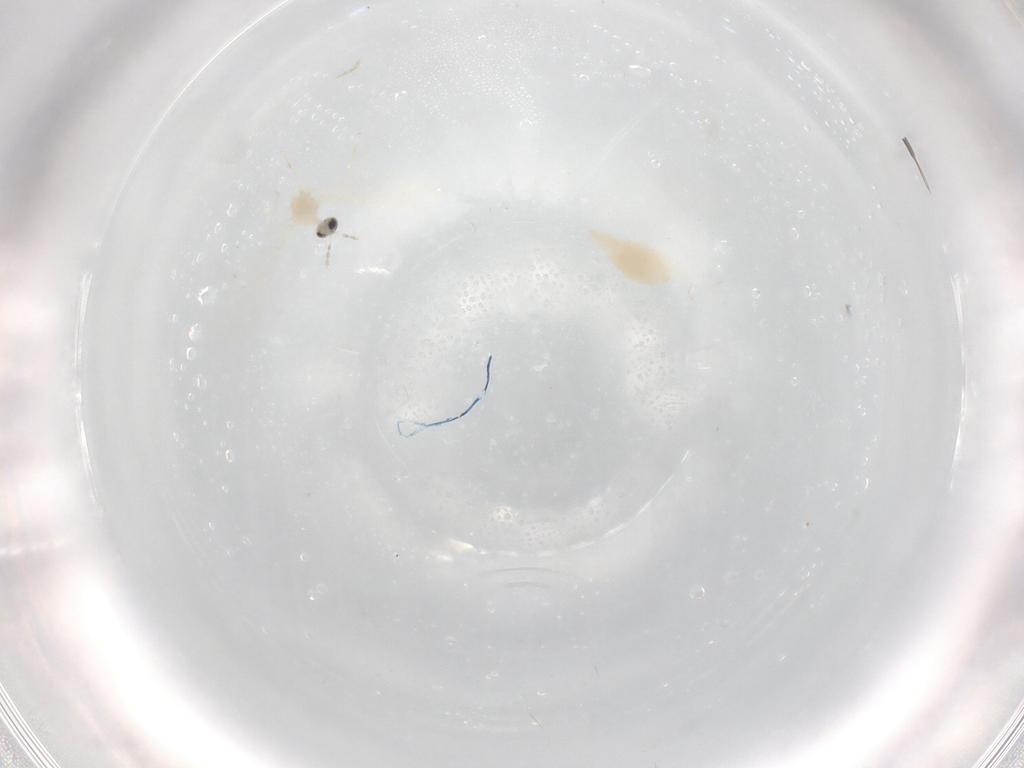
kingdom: Animalia
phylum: Arthropoda
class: Insecta
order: Diptera
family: Cecidomyiidae
